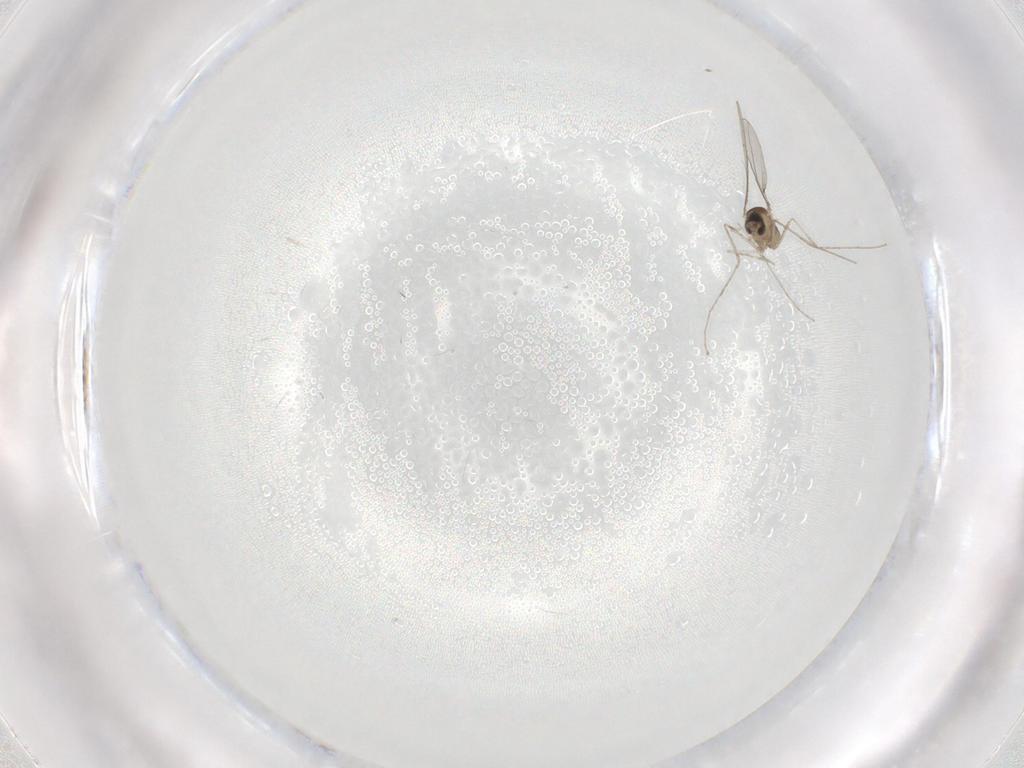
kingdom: Animalia
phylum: Arthropoda
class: Insecta
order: Diptera
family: Cecidomyiidae
